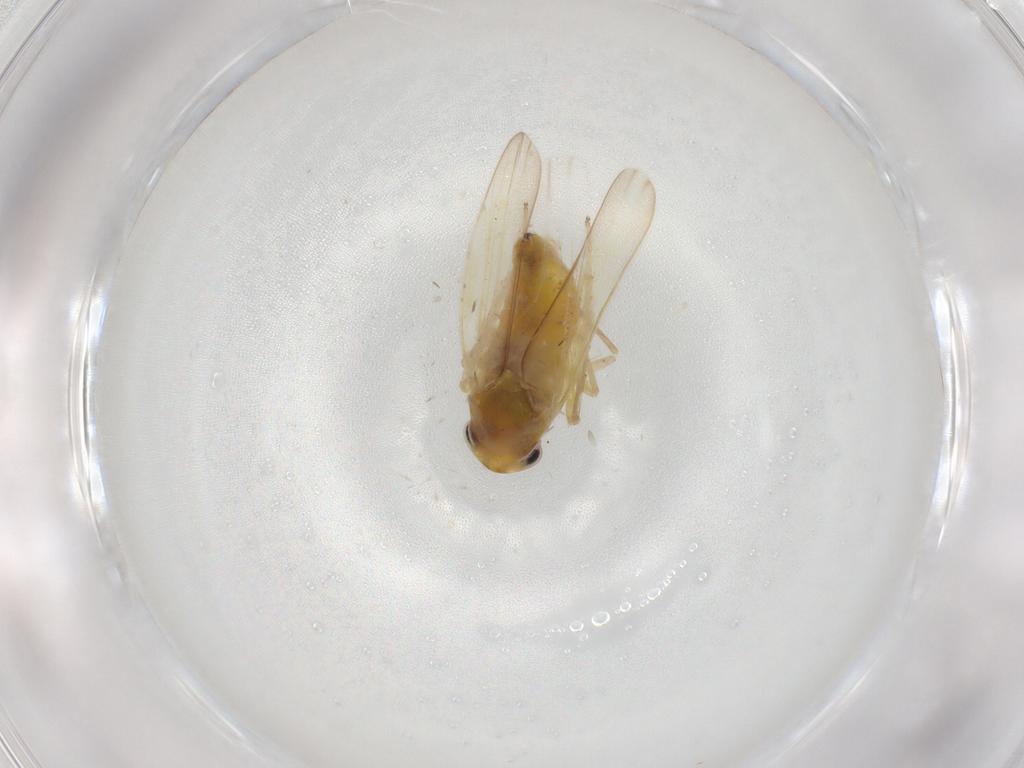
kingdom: Animalia
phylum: Arthropoda
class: Insecta
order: Hemiptera
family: Cicadellidae
